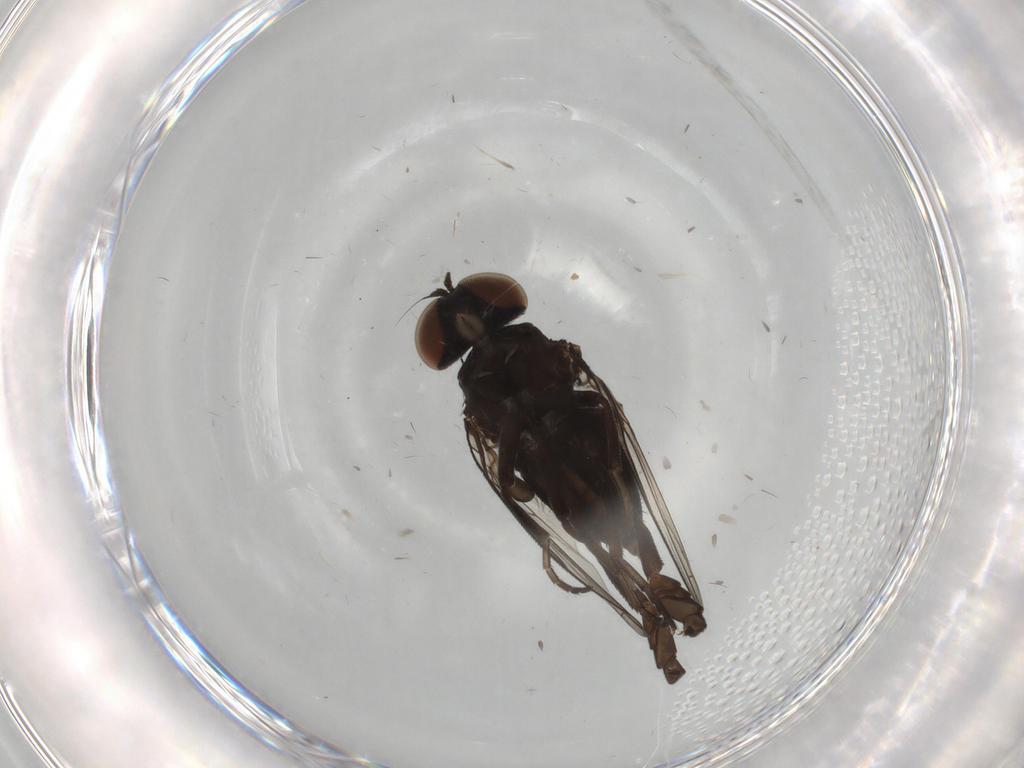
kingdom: Animalia
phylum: Arthropoda
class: Insecta
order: Diptera
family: Platypezidae
